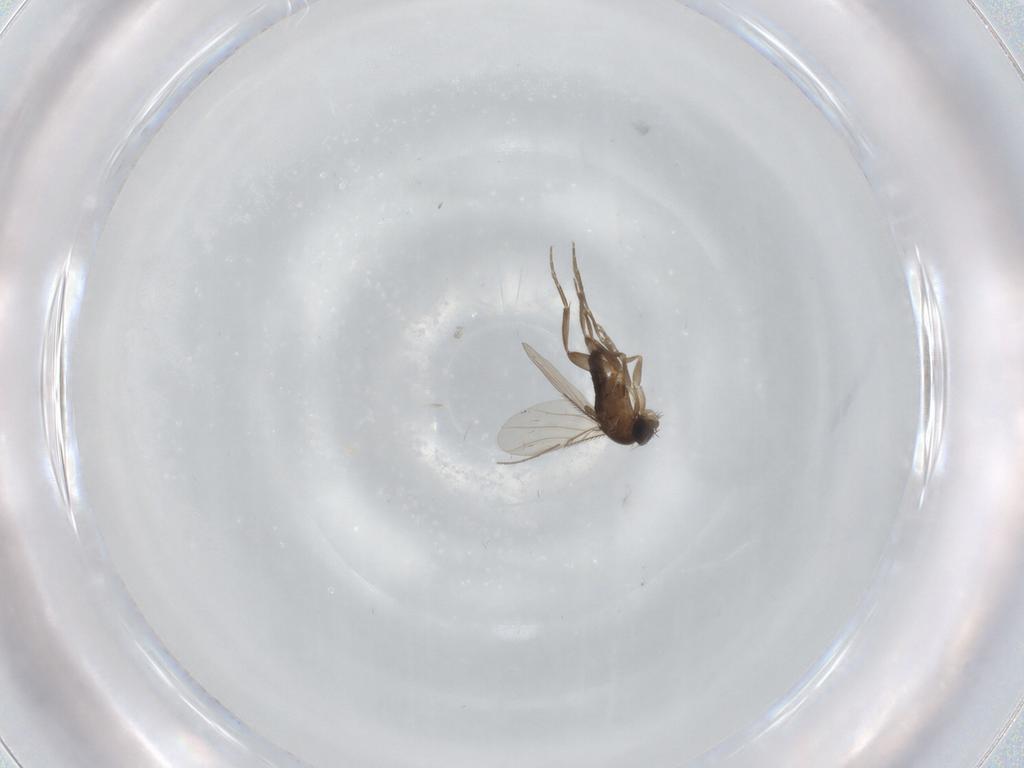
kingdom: Animalia
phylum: Arthropoda
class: Insecta
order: Diptera
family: Phoridae
